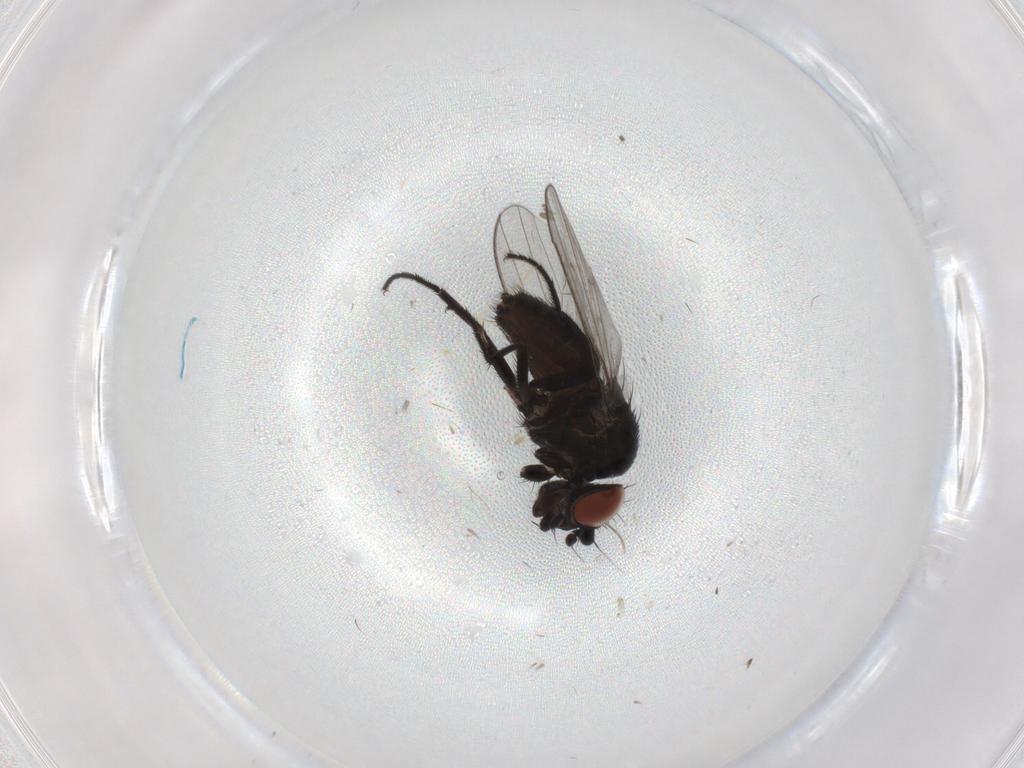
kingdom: Animalia
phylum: Arthropoda
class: Insecta
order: Diptera
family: Milichiidae
